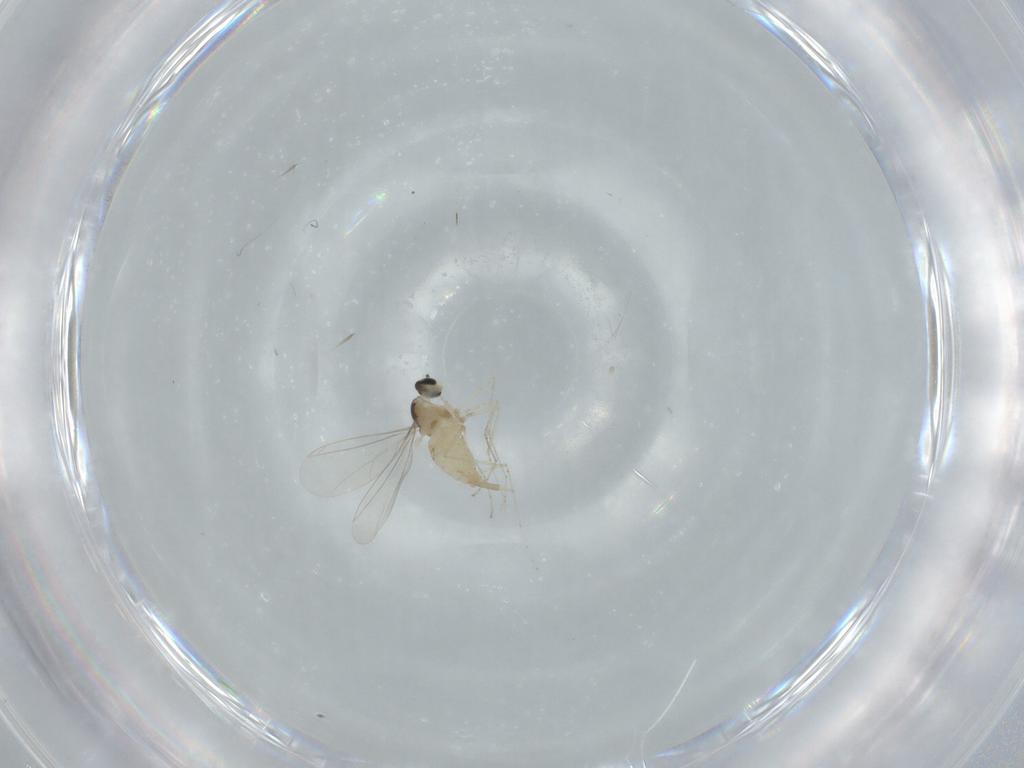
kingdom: Animalia
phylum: Arthropoda
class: Insecta
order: Diptera
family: Cecidomyiidae
